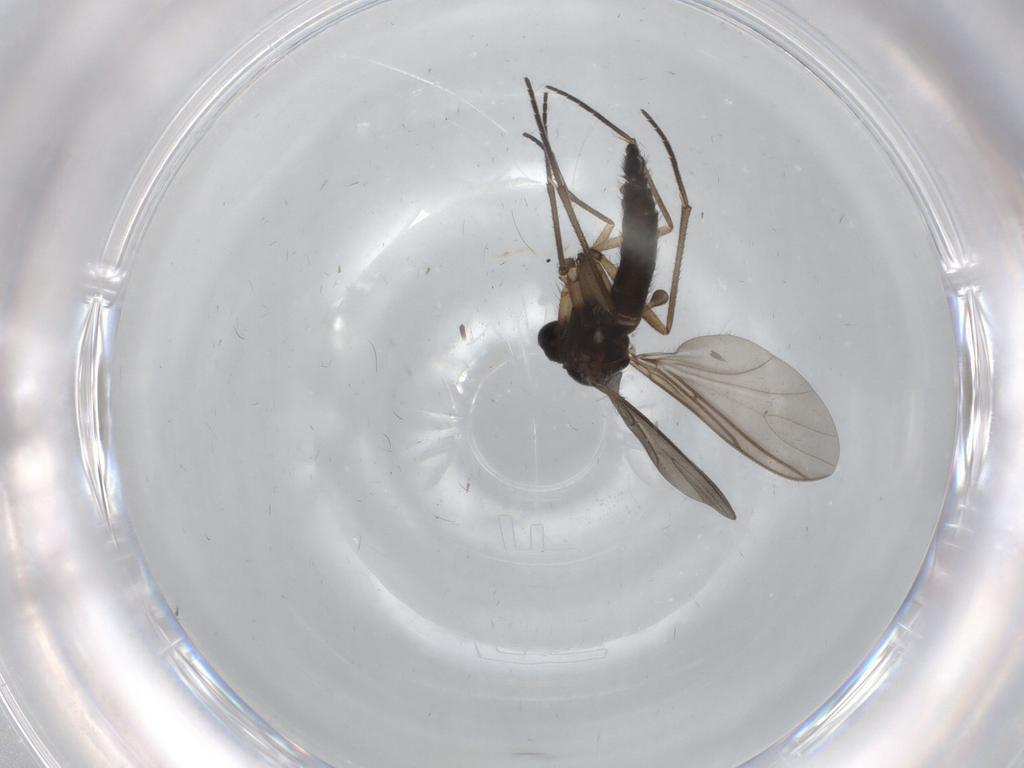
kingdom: Animalia
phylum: Arthropoda
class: Insecta
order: Diptera
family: Sciaridae
